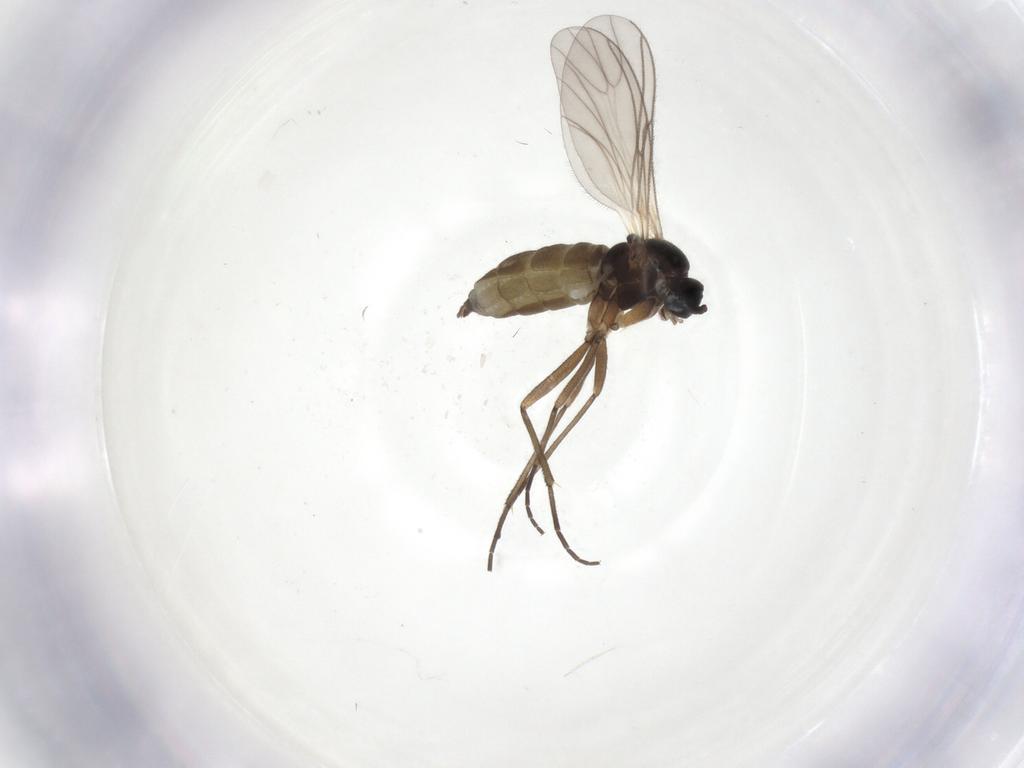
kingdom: Animalia
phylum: Arthropoda
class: Insecta
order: Diptera
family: Sciaridae
